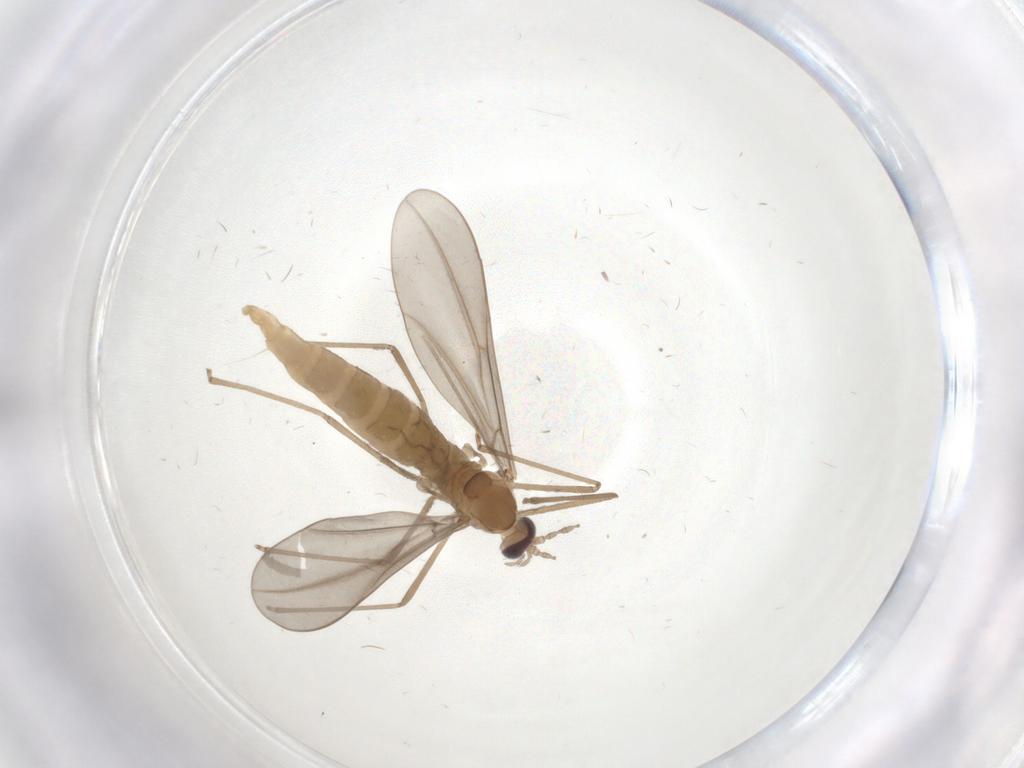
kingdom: Animalia
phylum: Arthropoda
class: Insecta
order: Diptera
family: Cecidomyiidae
